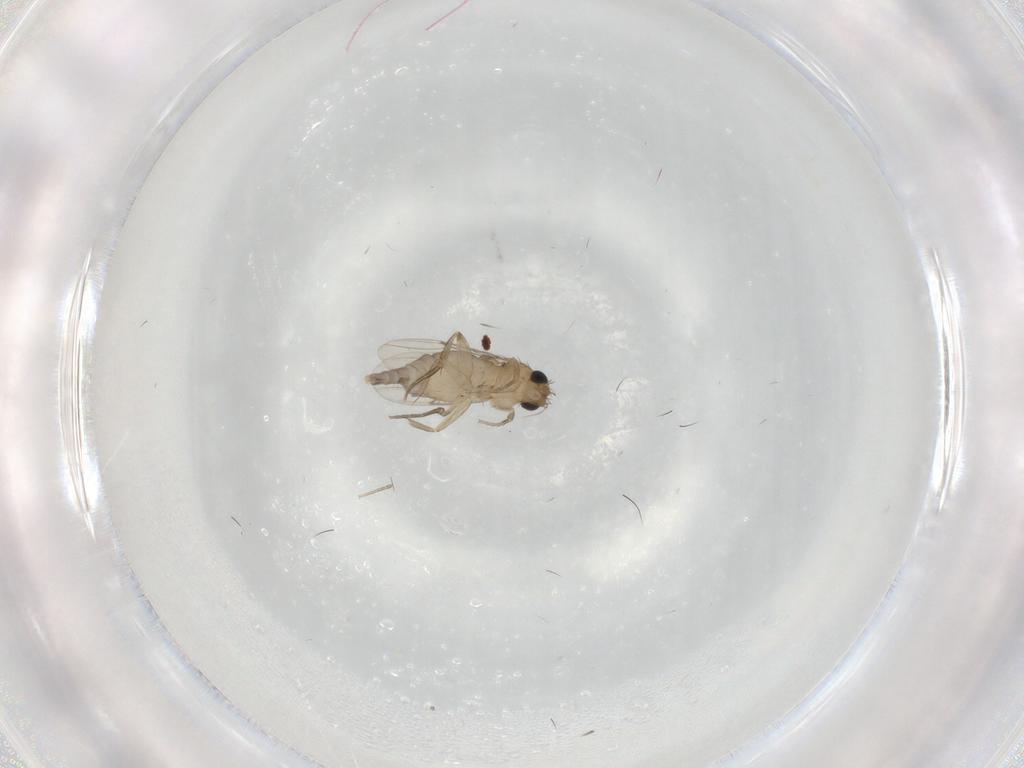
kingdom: Animalia
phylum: Arthropoda
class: Insecta
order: Diptera
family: Phoridae
